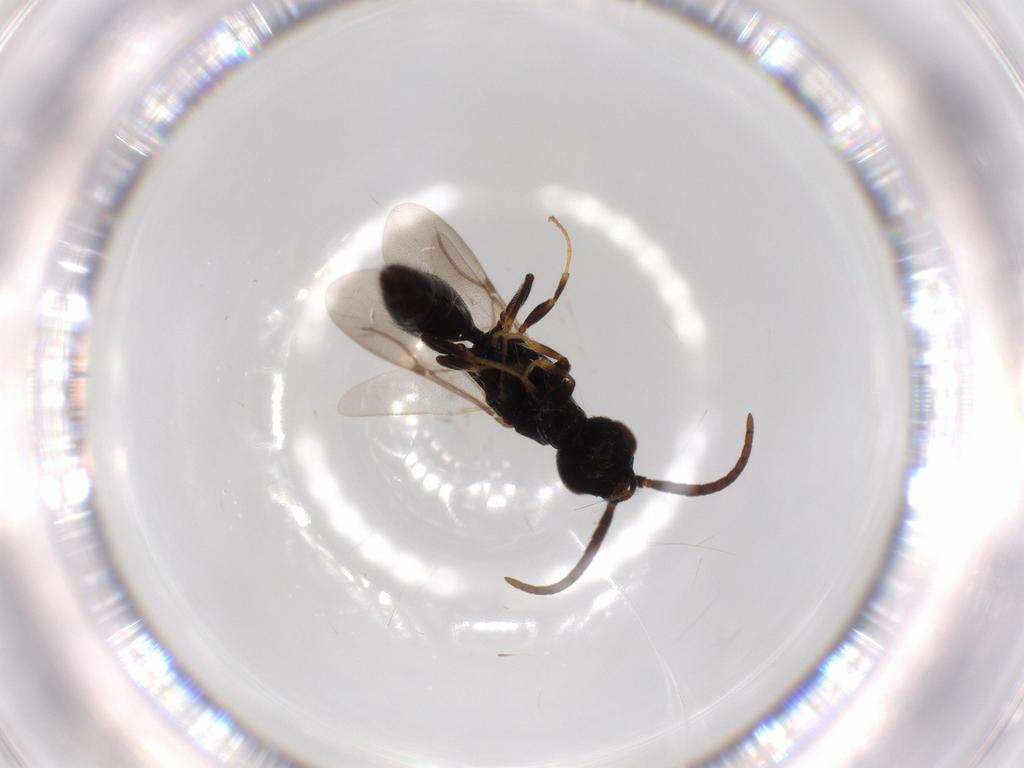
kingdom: Animalia
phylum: Arthropoda
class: Insecta
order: Hymenoptera
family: Bethylidae
